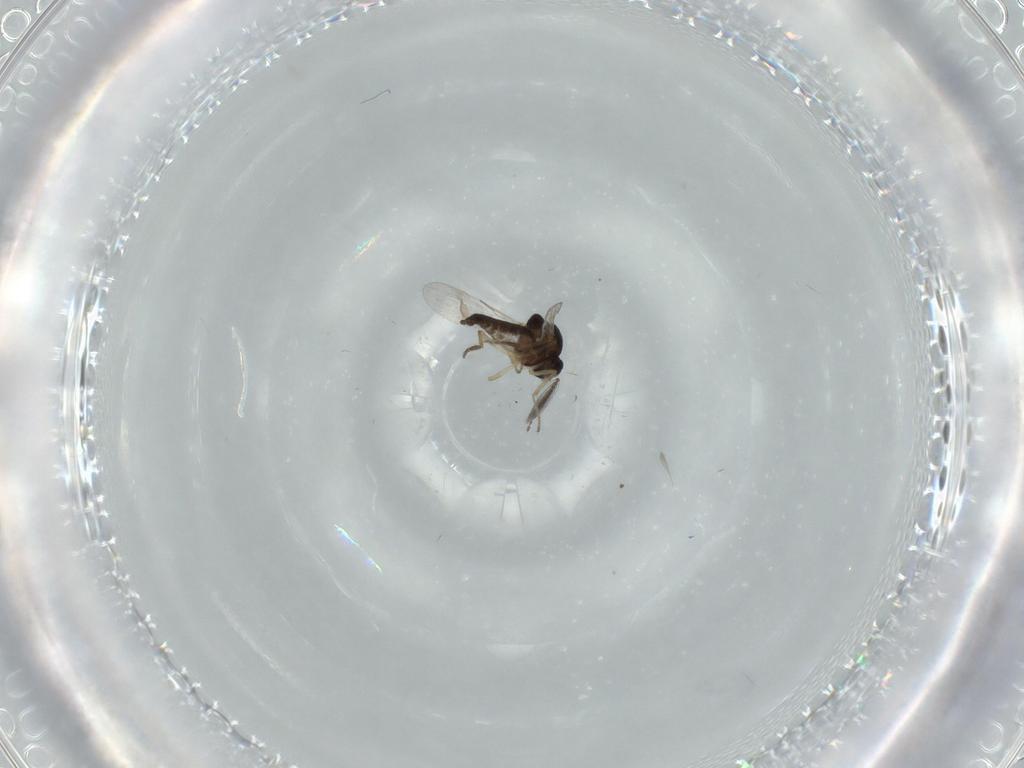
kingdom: Animalia
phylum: Arthropoda
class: Insecta
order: Diptera
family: Ceratopogonidae
